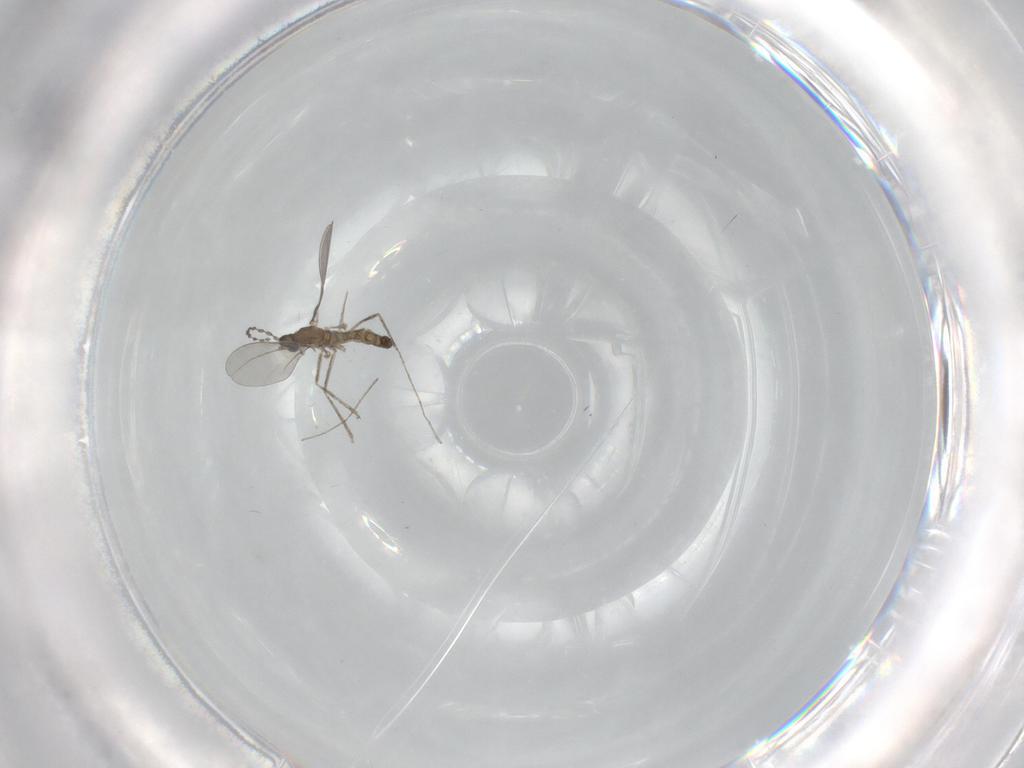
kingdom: Animalia
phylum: Arthropoda
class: Insecta
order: Diptera
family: Cecidomyiidae
